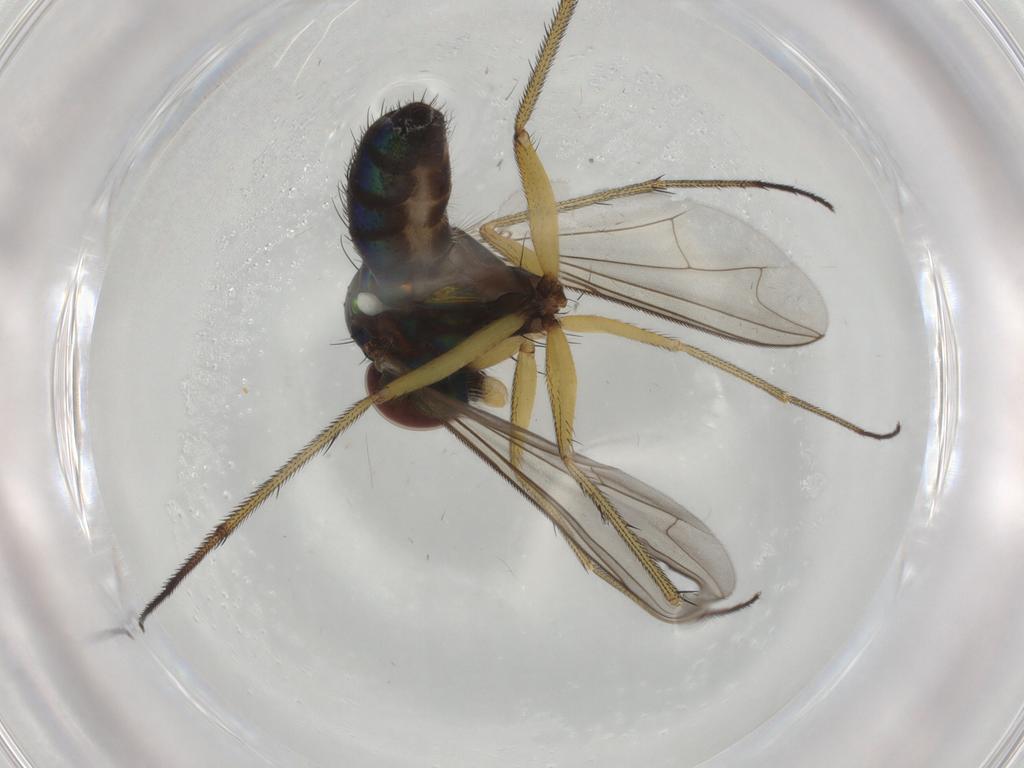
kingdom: Animalia
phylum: Arthropoda
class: Insecta
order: Diptera
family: Dolichopodidae
